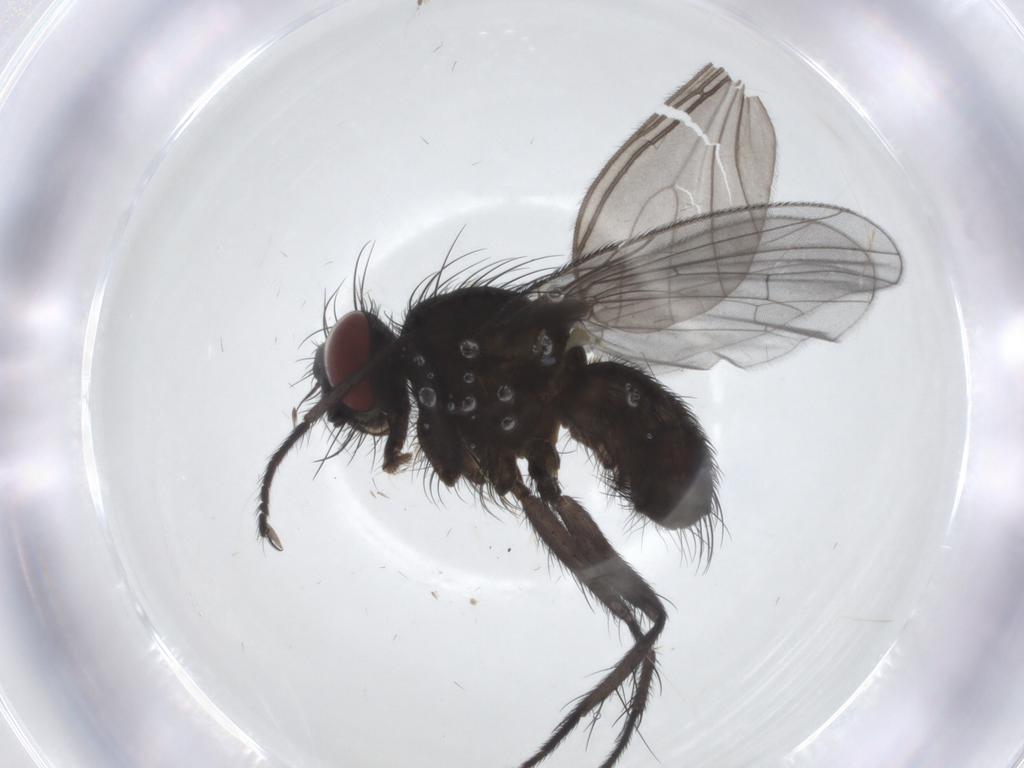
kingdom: Animalia
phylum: Arthropoda
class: Insecta
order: Diptera
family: Muscidae
